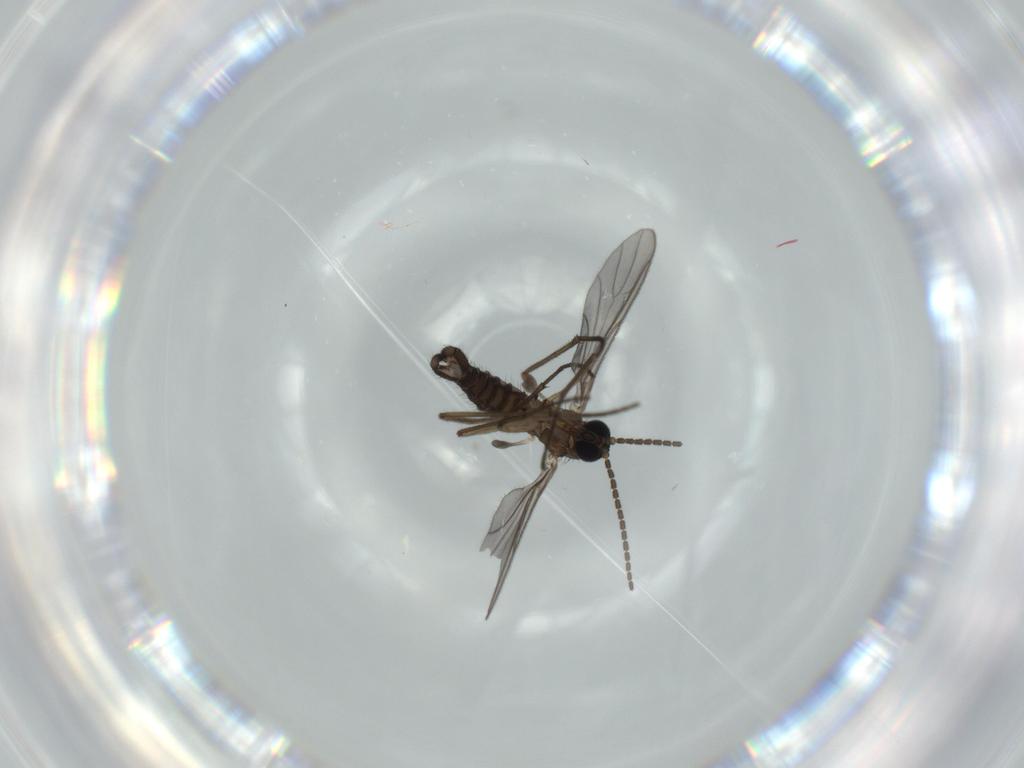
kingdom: Animalia
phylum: Arthropoda
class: Insecta
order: Diptera
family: Sciaridae
